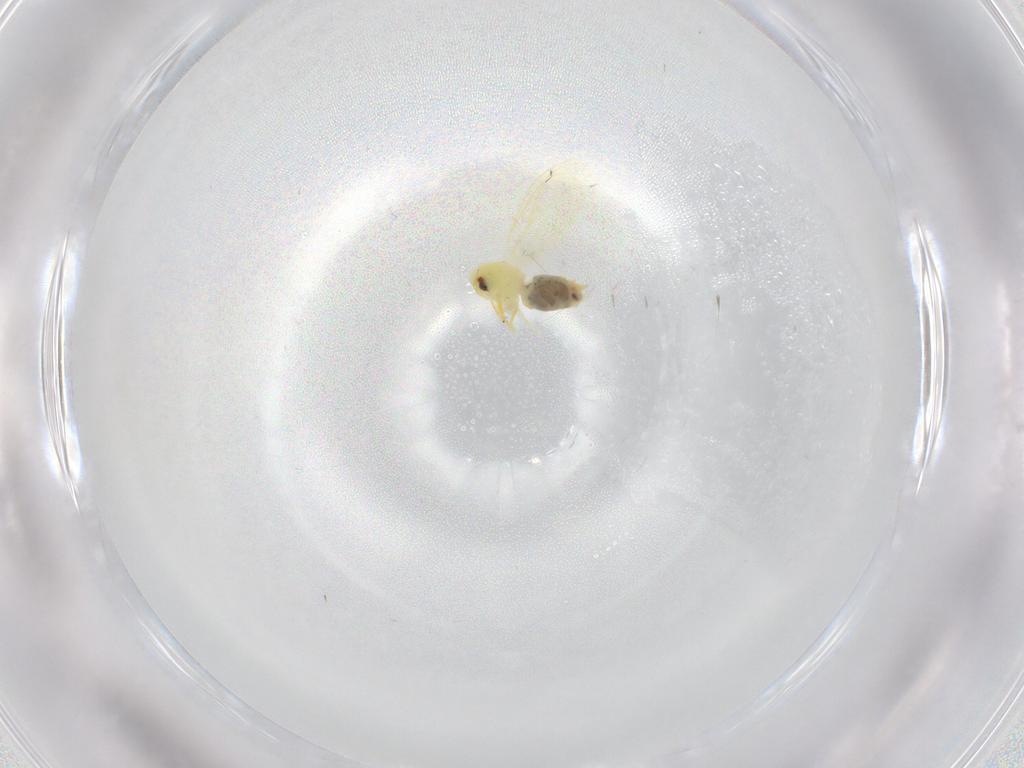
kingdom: Animalia
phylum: Arthropoda
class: Insecta
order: Hemiptera
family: Aleyrodidae
